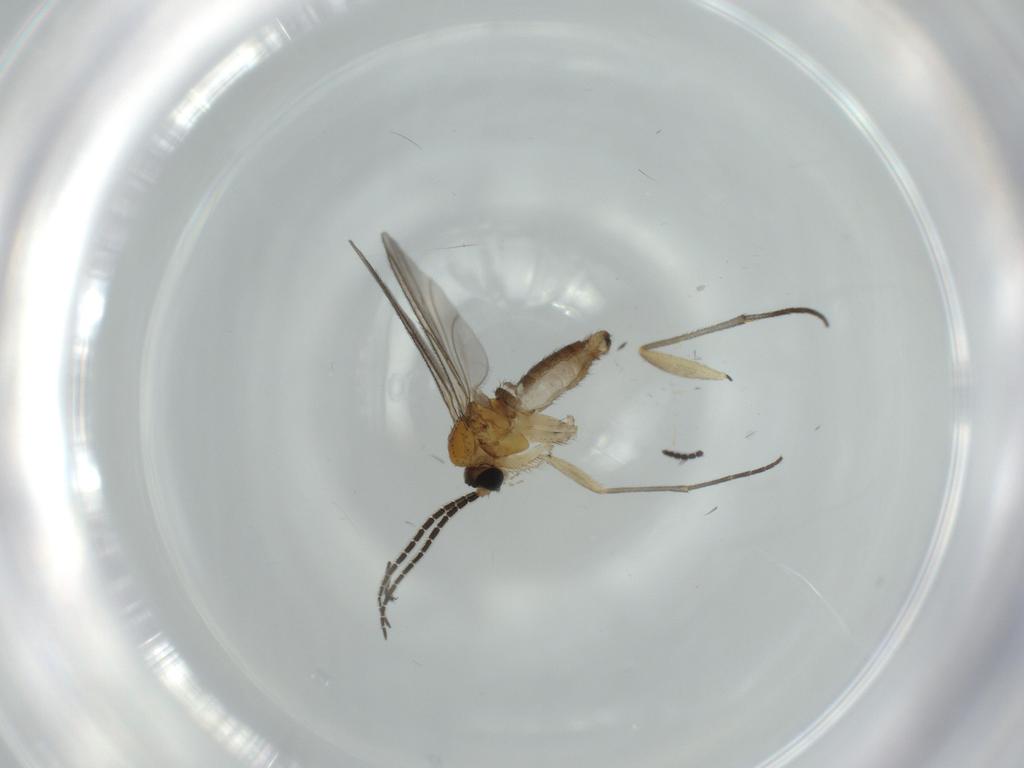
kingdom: Animalia
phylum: Arthropoda
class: Insecta
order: Diptera
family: Sciaridae
